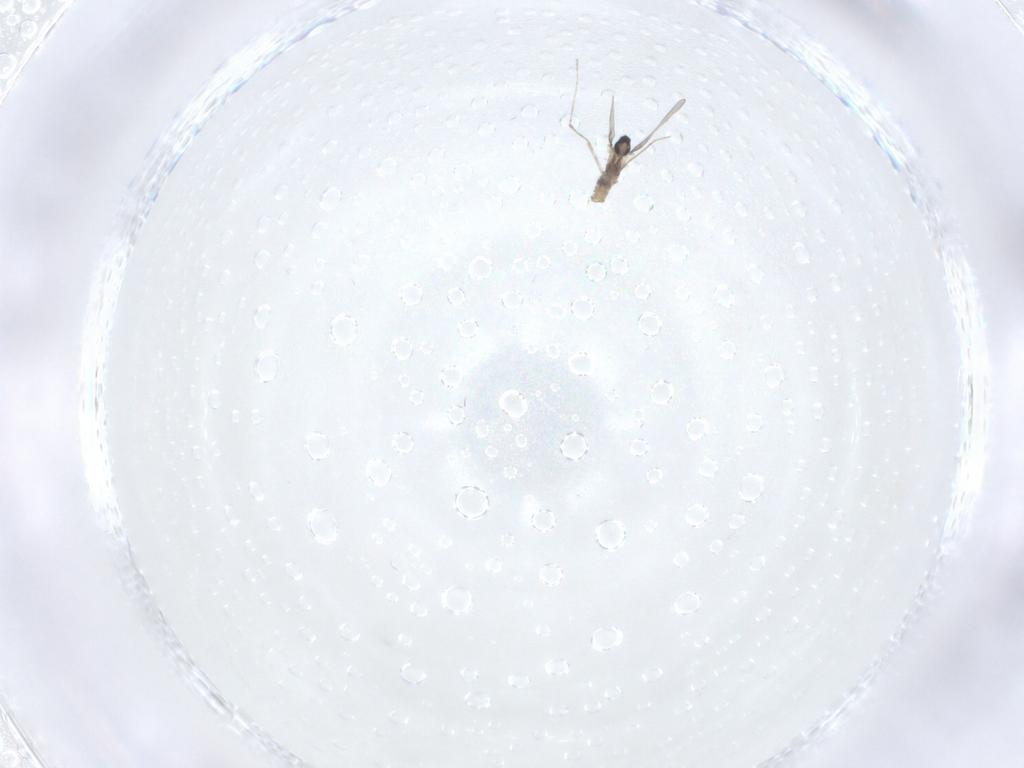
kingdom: Animalia
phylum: Arthropoda
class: Insecta
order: Diptera
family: Cecidomyiidae
